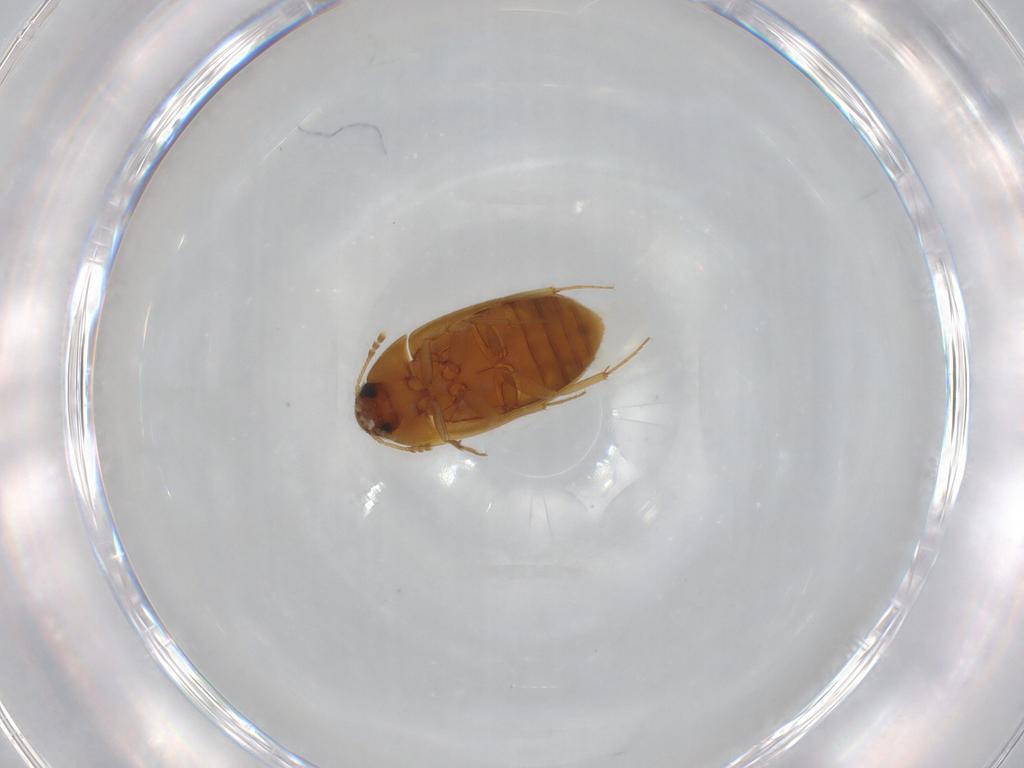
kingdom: Animalia
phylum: Arthropoda
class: Insecta
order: Coleoptera
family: Mycetophagidae
